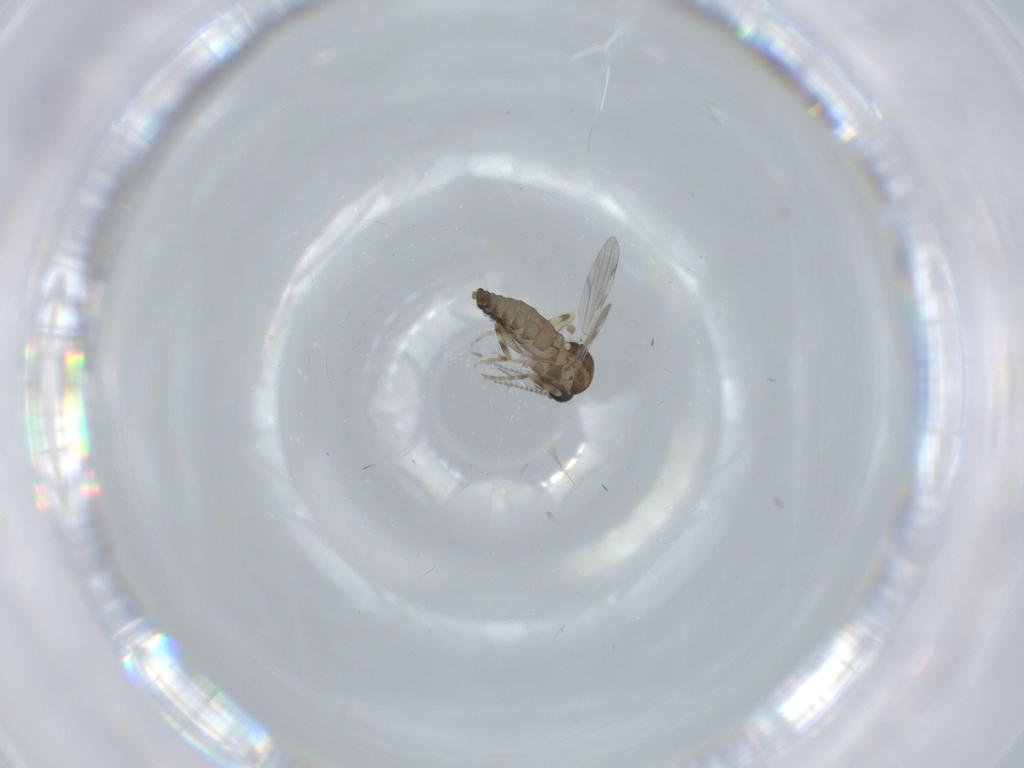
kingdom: Animalia
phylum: Arthropoda
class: Insecta
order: Diptera
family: Ceratopogonidae
